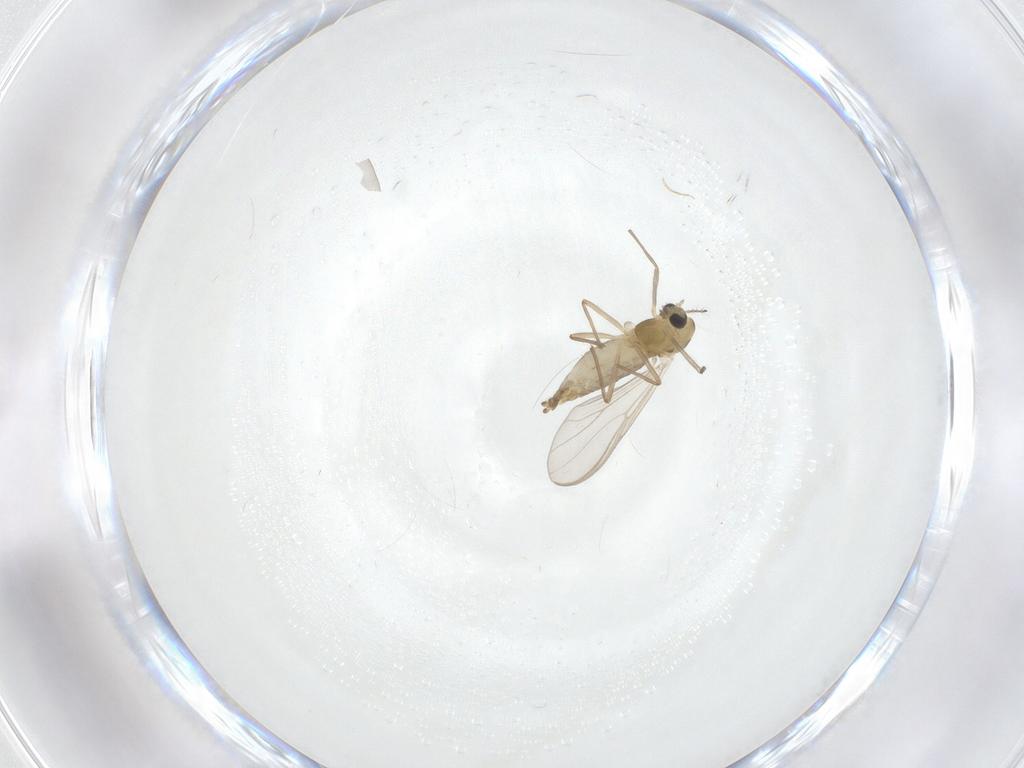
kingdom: Animalia
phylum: Arthropoda
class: Insecta
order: Diptera
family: Chironomidae
